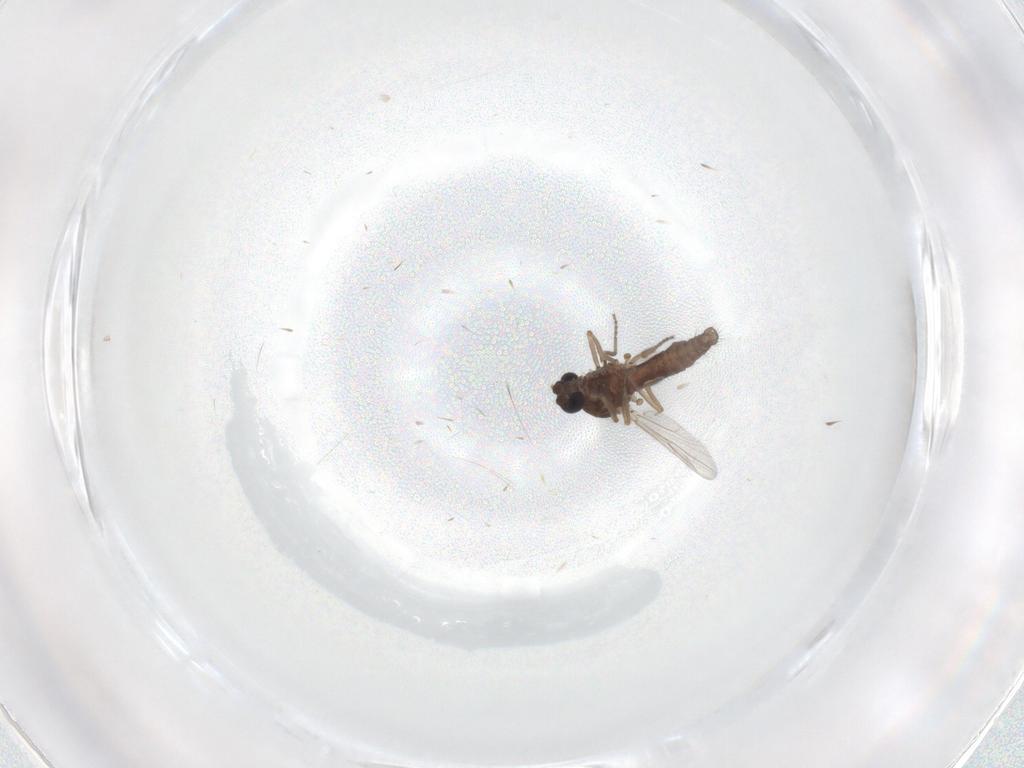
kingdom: Animalia
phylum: Arthropoda
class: Insecta
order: Diptera
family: Ceratopogonidae
